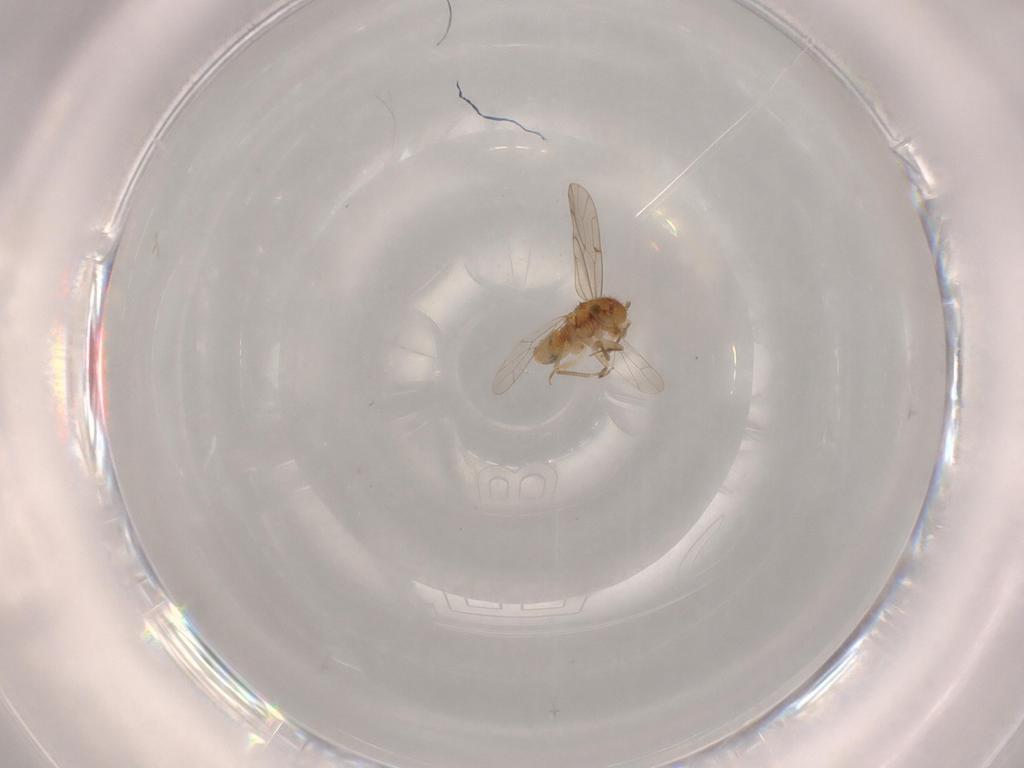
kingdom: Animalia
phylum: Arthropoda
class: Insecta
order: Psocodea
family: Ectopsocidae
